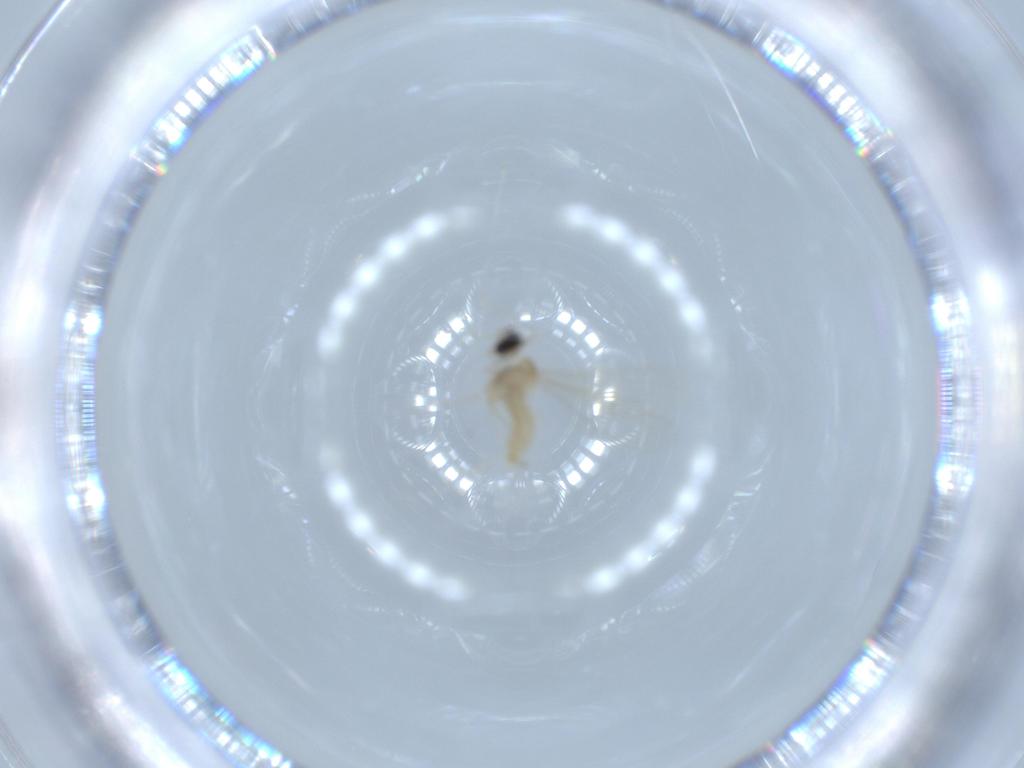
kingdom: Animalia
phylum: Arthropoda
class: Insecta
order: Diptera
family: Cecidomyiidae
